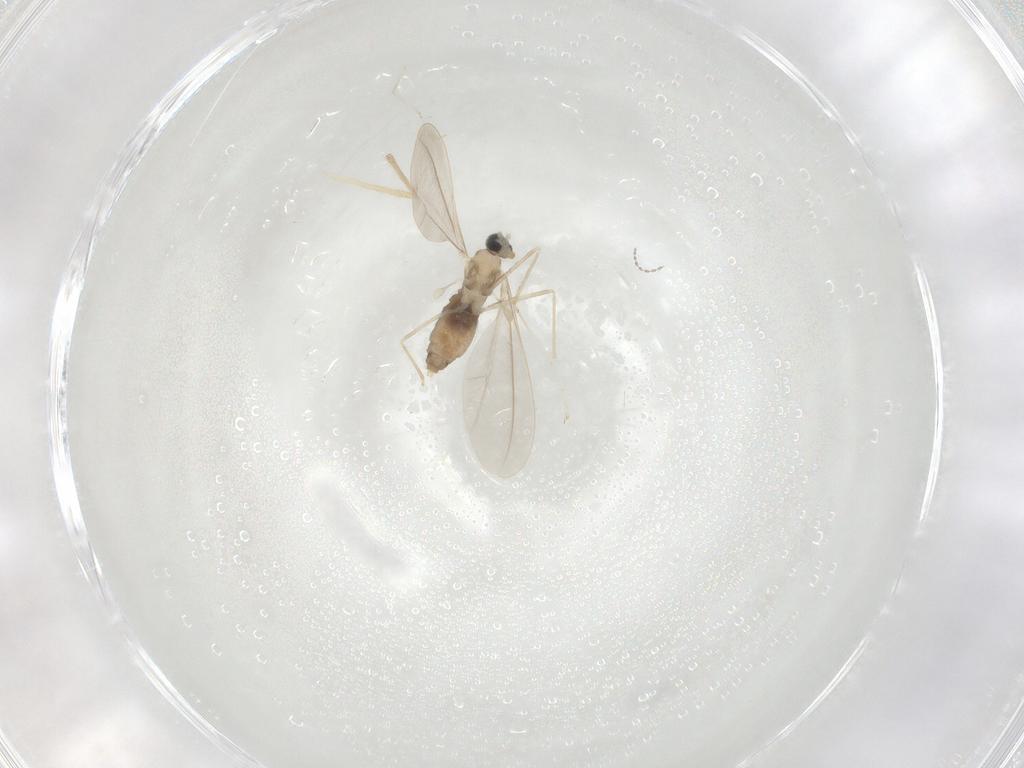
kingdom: Animalia
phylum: Arthropoda
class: Insecta
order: Diptera
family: Cecidomyiidae
